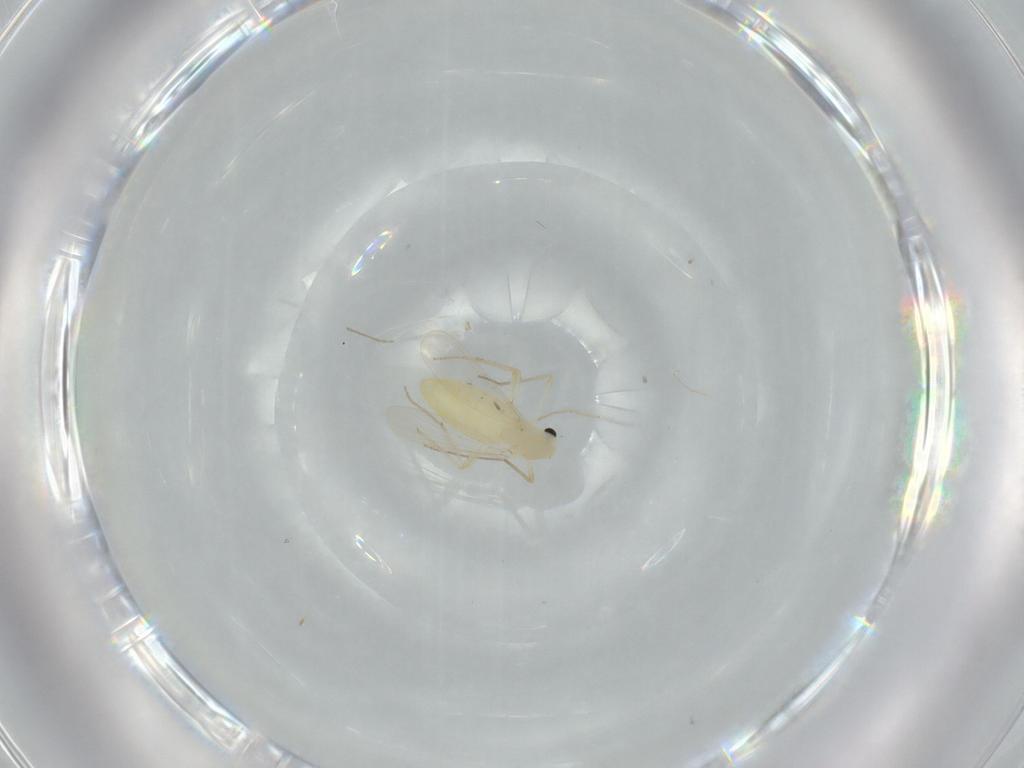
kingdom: Animalia
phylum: Arthropoda
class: Insecta
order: Diptera
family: Chironomidae
